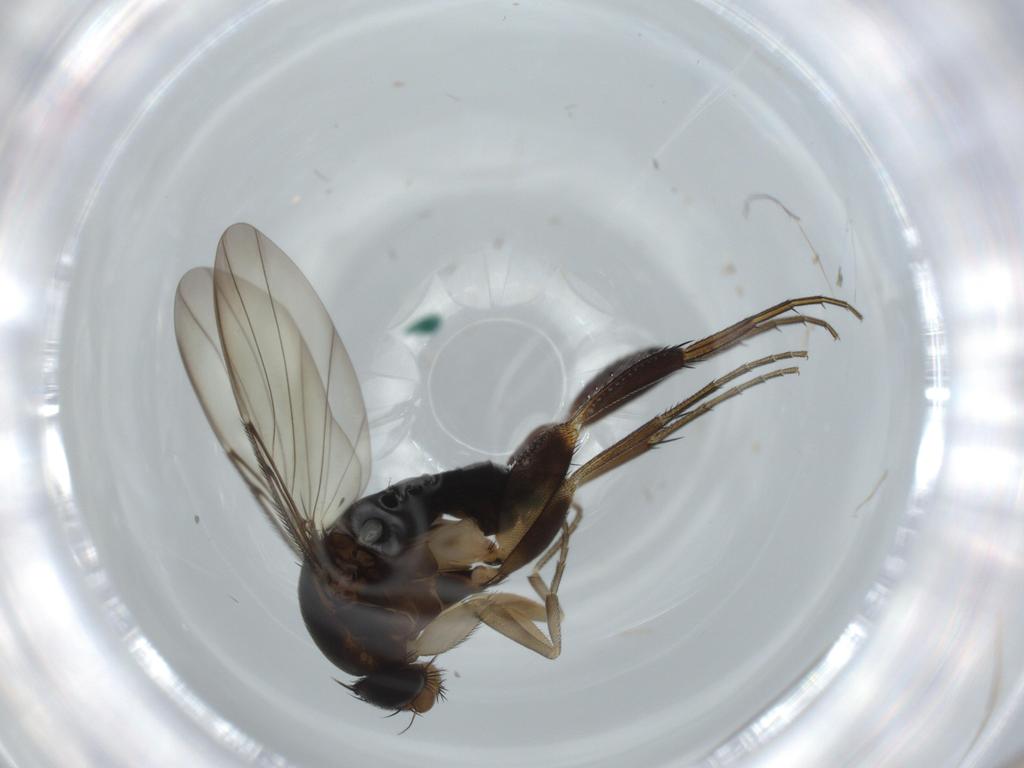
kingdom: Animalia
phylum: Arthropoda
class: Insecta
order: Diptera
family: Phoridae
